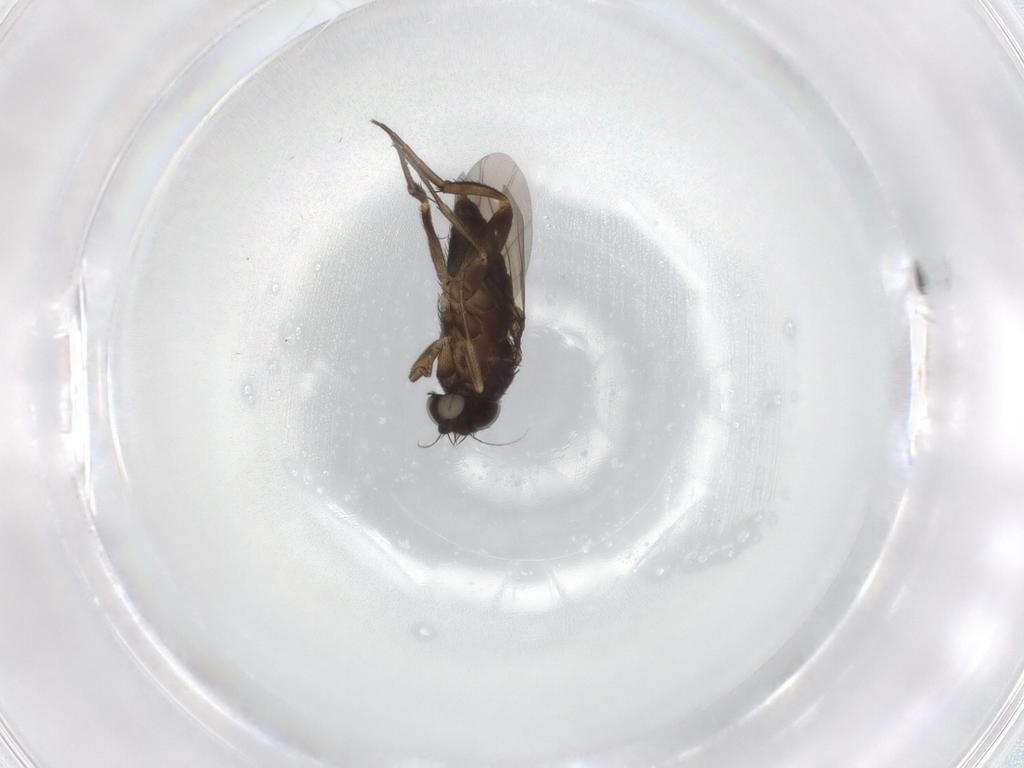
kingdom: Animalia
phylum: Arthropoda
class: Insecta
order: Diptera
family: Phoridae
